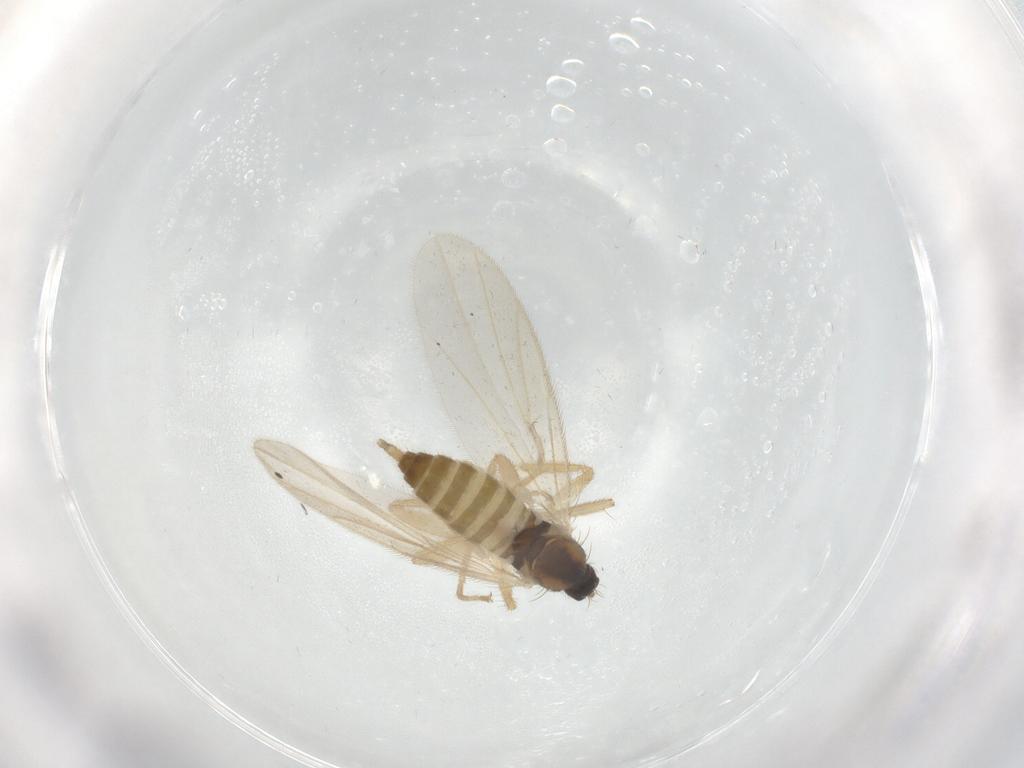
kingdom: Animalia
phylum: Arthropoda
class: Insecta
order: Diptera
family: Hybotidae
